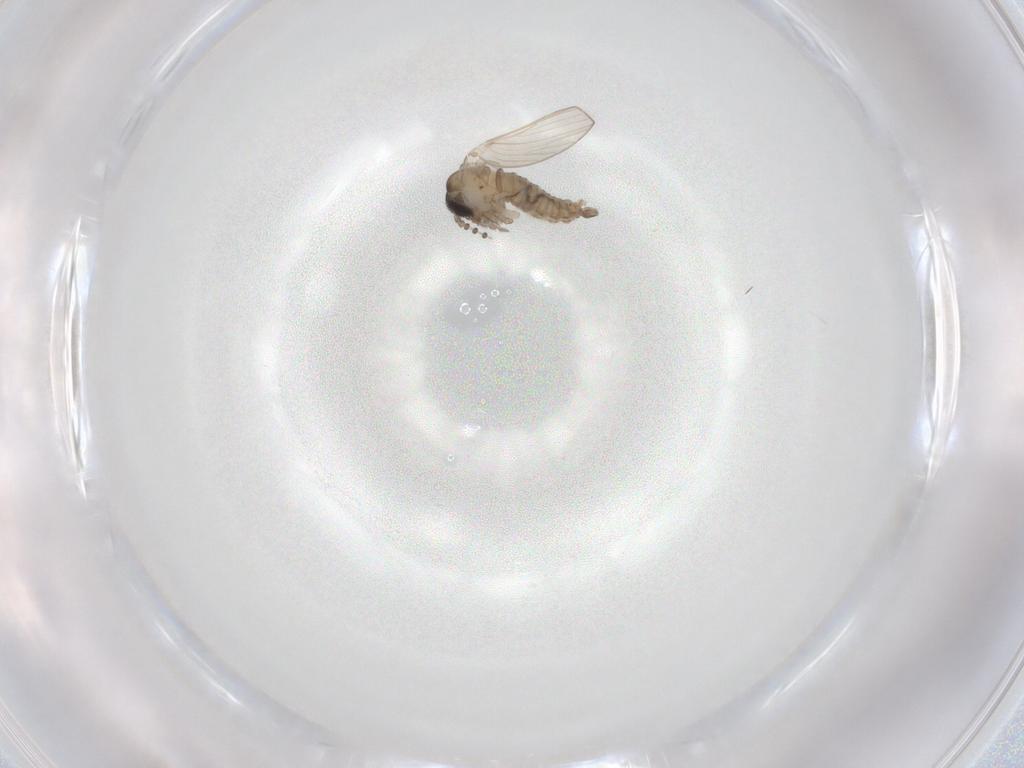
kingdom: Animalia
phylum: Arthropoda
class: Insecta
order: Diptera
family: Psychodidae
